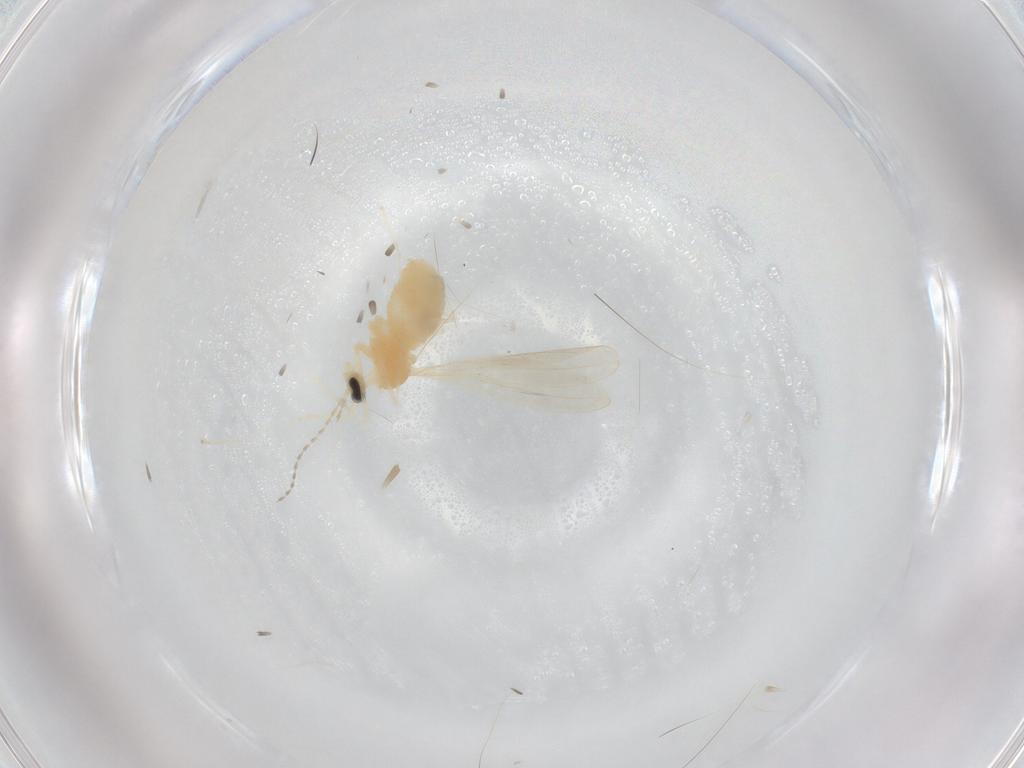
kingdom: Animalia
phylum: Arthropoda
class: Insecta
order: Diptera
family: Cecidomyiidae
